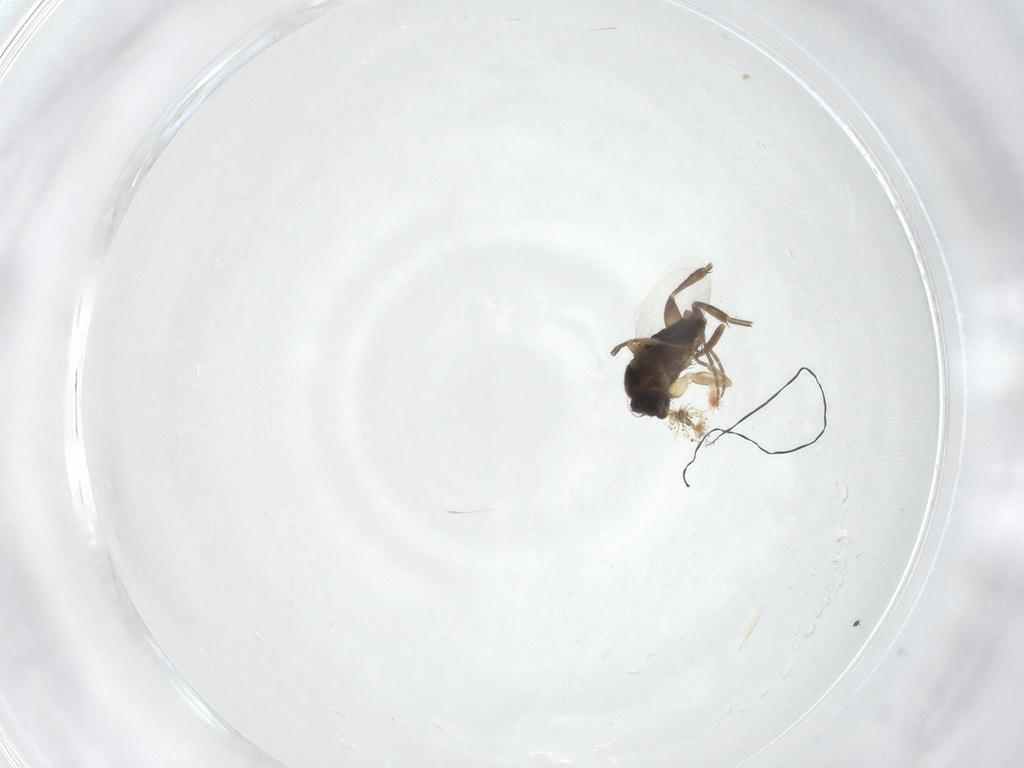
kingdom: Animalia
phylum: Arthropoda
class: Insecta
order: Diptera
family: Phoridae
